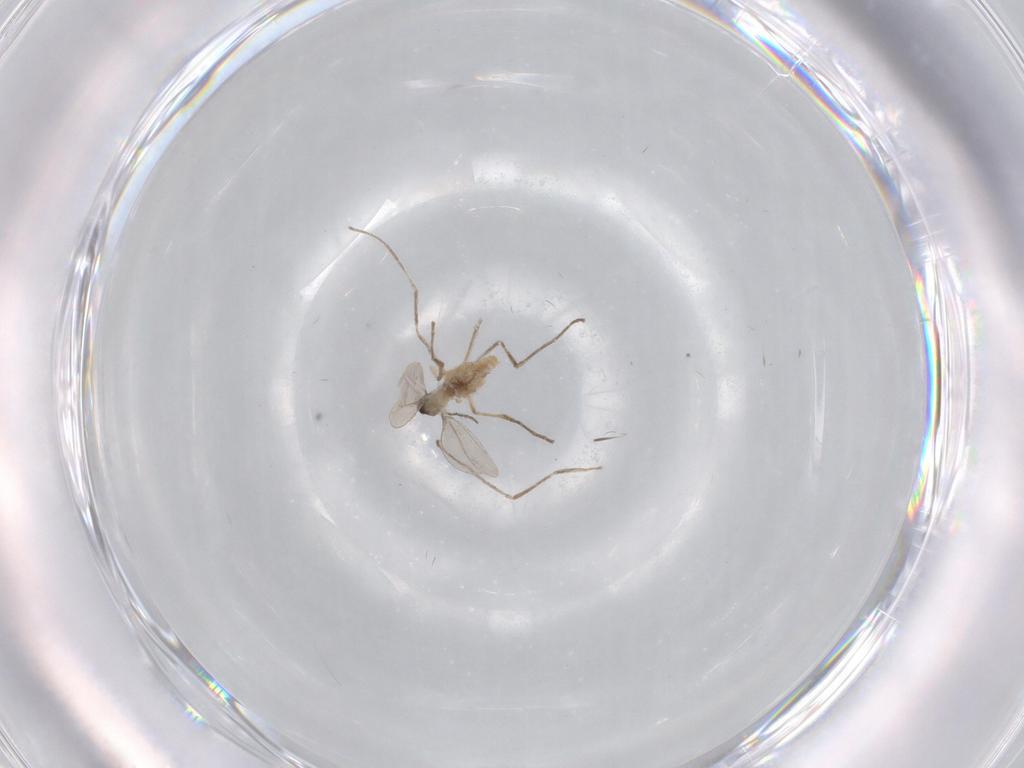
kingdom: Animalia
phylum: Arthropoda
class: Insecta
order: Diptera
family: Cecidomyiidae
